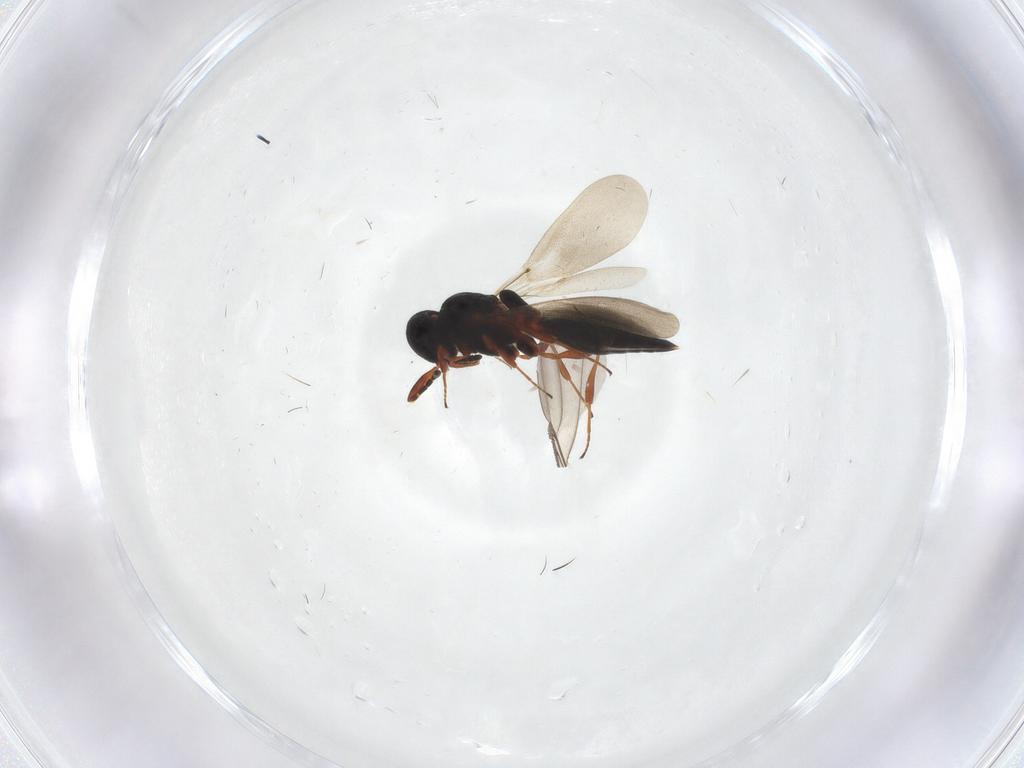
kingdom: Animalia
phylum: Arthropoda
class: Insecta
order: Hymenoptera
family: Platygastridae
